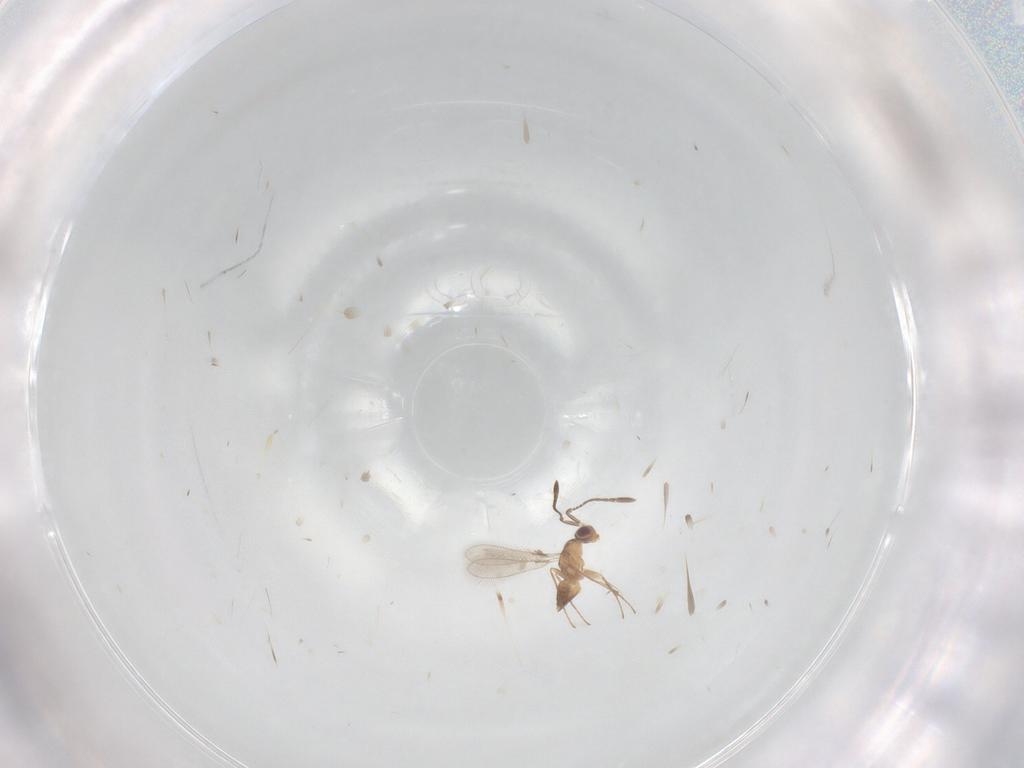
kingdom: Animalia
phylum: Arthropoda
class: Insecta
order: Hymenoptera
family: Mymaridae
